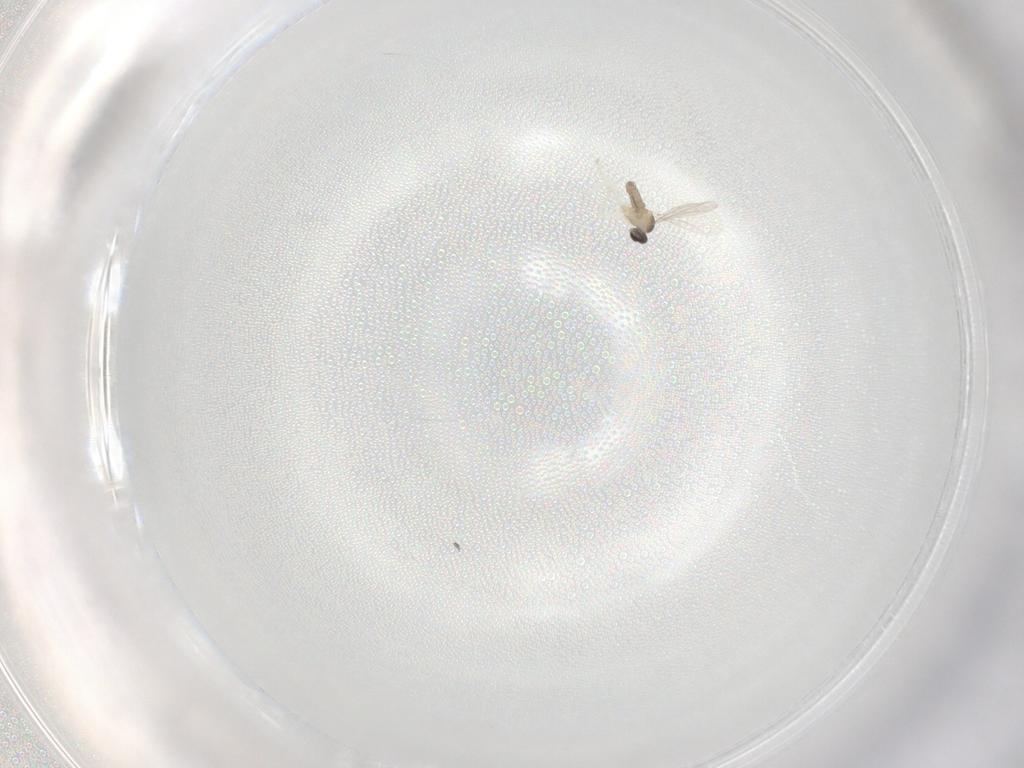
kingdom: Animalia
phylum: Arthropoda
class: Insecta
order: Diptera
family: Psychodidae
